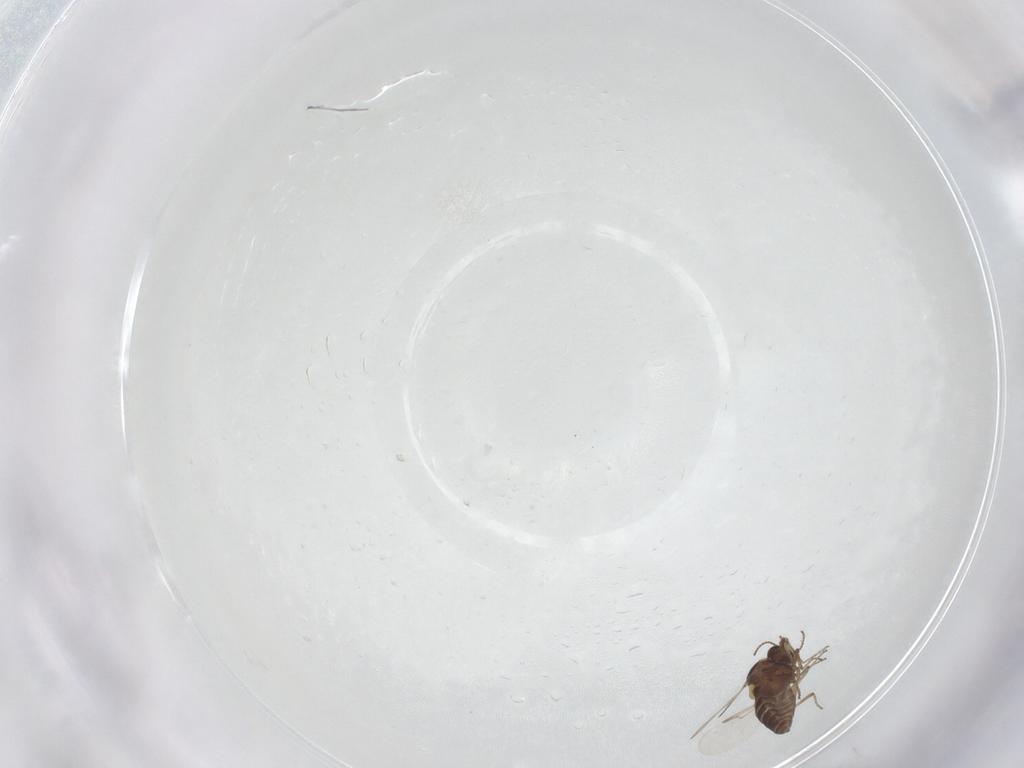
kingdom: Animalia
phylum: Arthropoda
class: Insecta
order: Diptera
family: Ceratopogonidae
